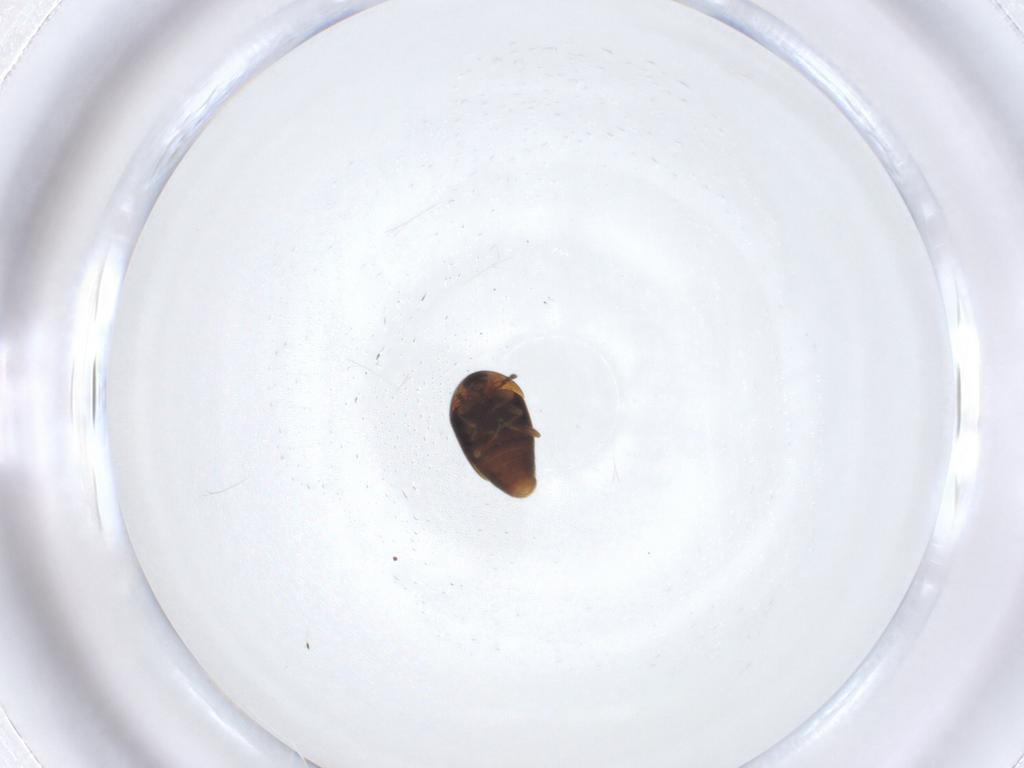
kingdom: Animalia
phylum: Arthropoda
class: Insecta
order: Coleoptera
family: Corylophidae
